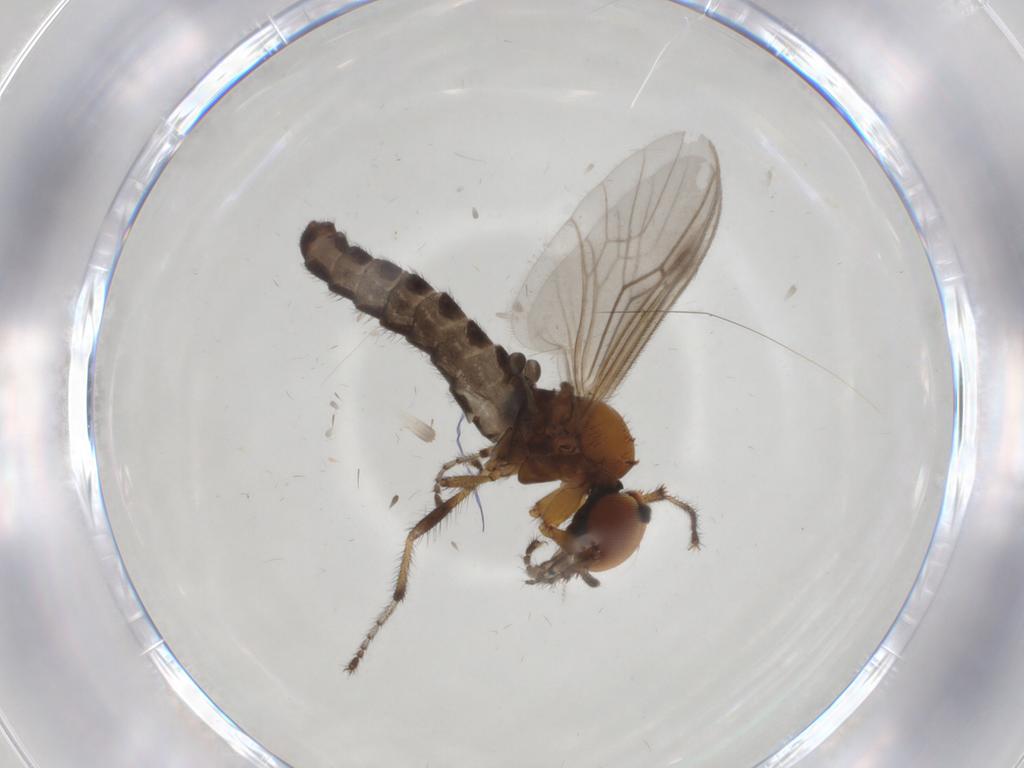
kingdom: Animalia
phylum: Arthropoda
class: Insecta
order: Diptera
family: Bibionidae
